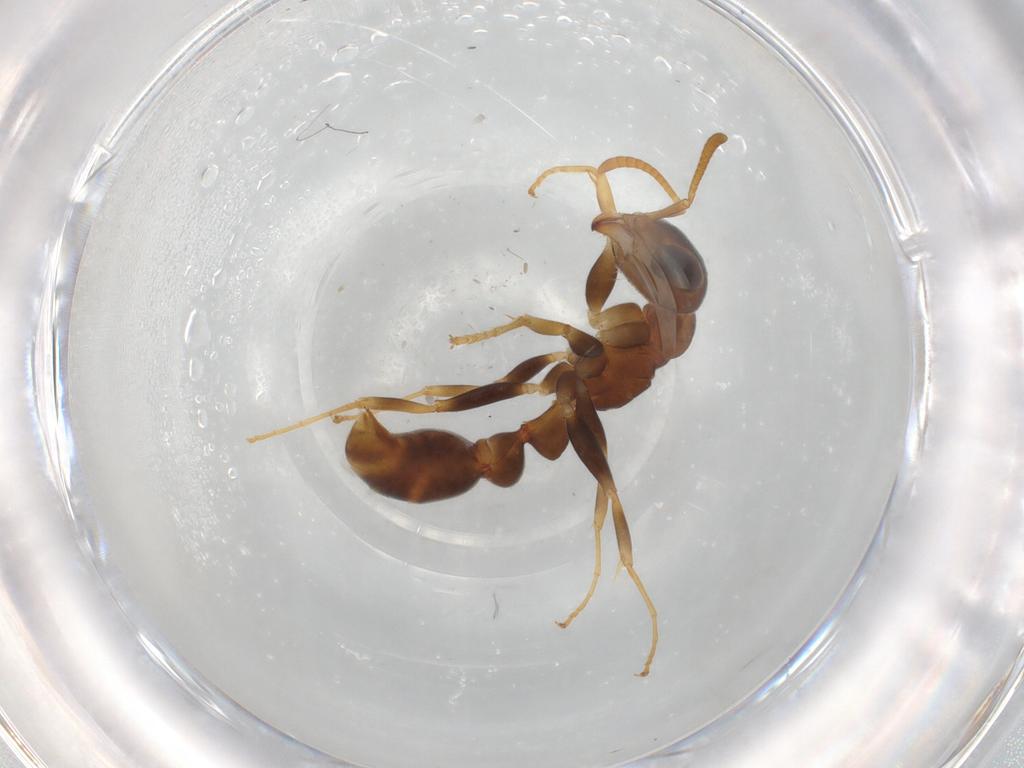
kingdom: Animalia
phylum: Arthropoda
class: Insecta
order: Hymenoptera
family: Formicidae
